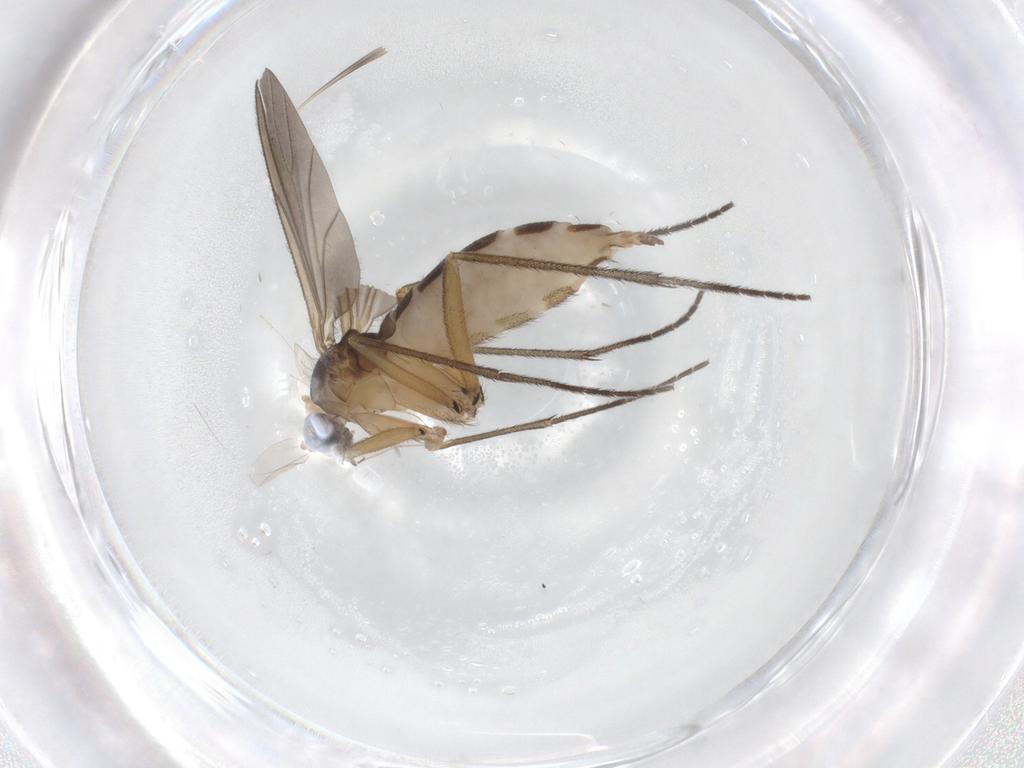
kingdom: Animalia
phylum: Arthropoda
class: Insecta
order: Diptera
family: Sciaridae
